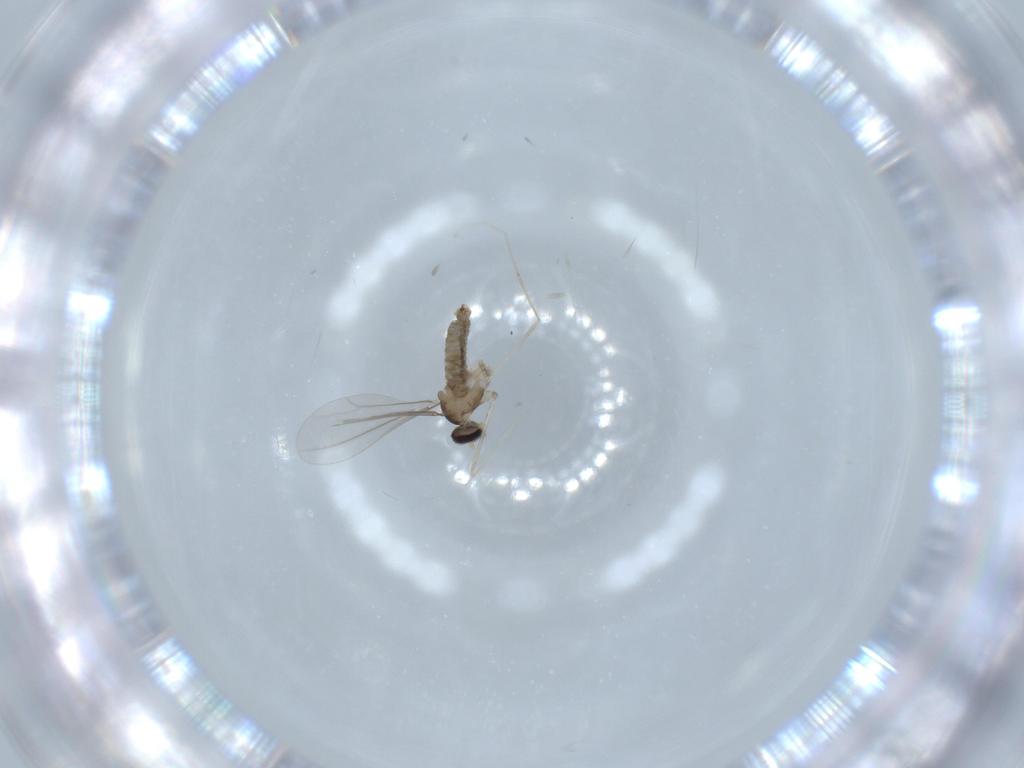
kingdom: Animalia
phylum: Arthropoda
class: Insecta
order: Diptera
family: Cecidomyiidae
